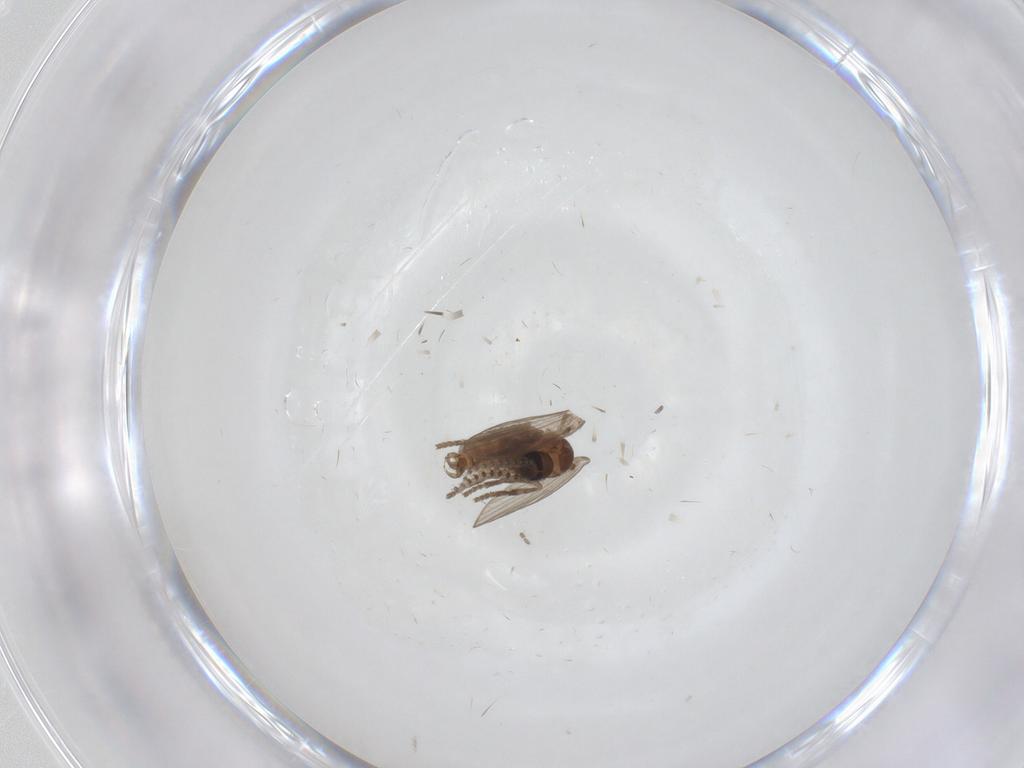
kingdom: Animalia
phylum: Arthropoda
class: Insecta
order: Diptera
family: Psychodidae
